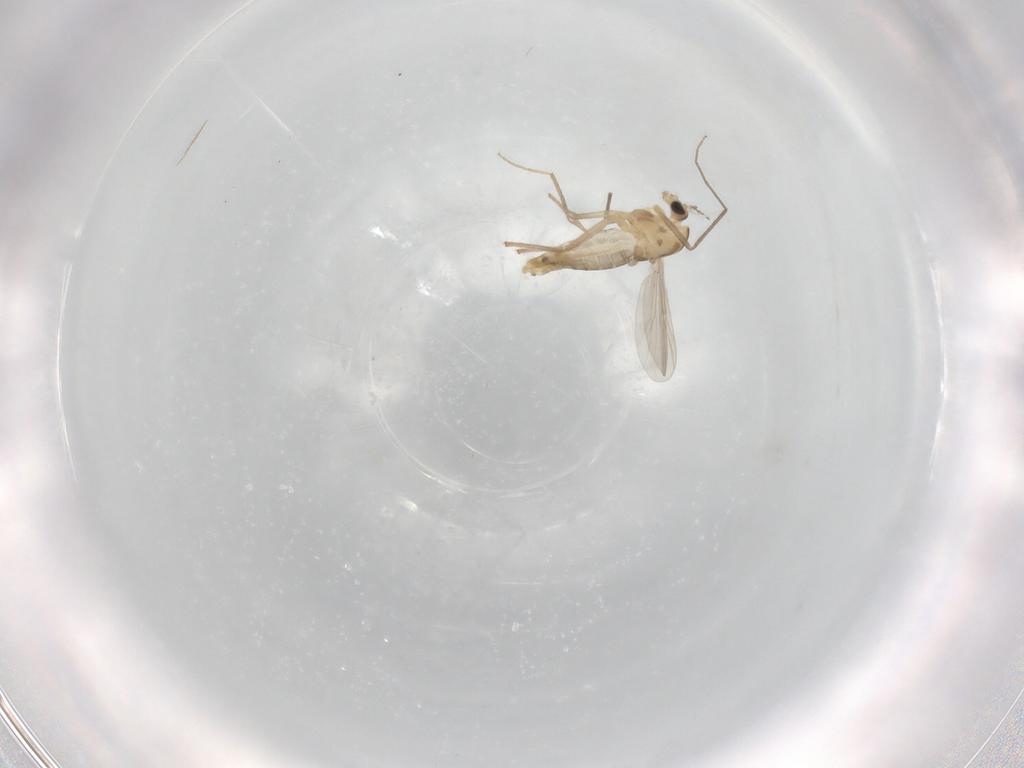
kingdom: Animalia
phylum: Arthropoda
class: Insecta
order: Diptera
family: Chironomidae
